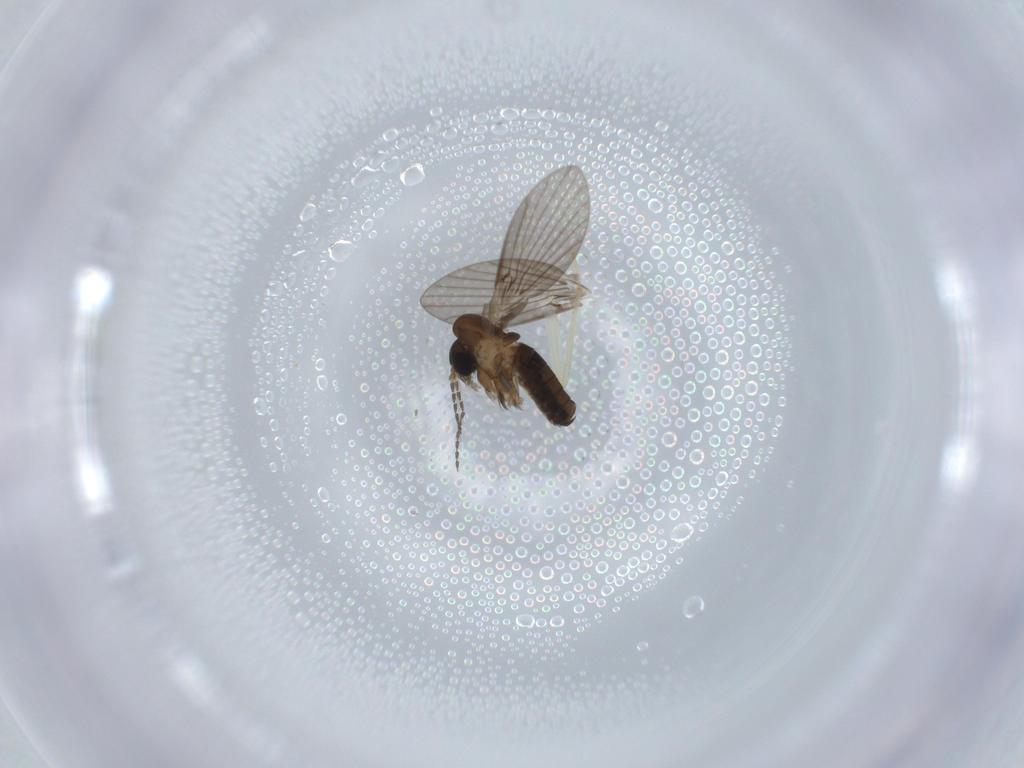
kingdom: Animalia
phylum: Arthropoda
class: Insecta
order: Diptera
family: Psychodidae
